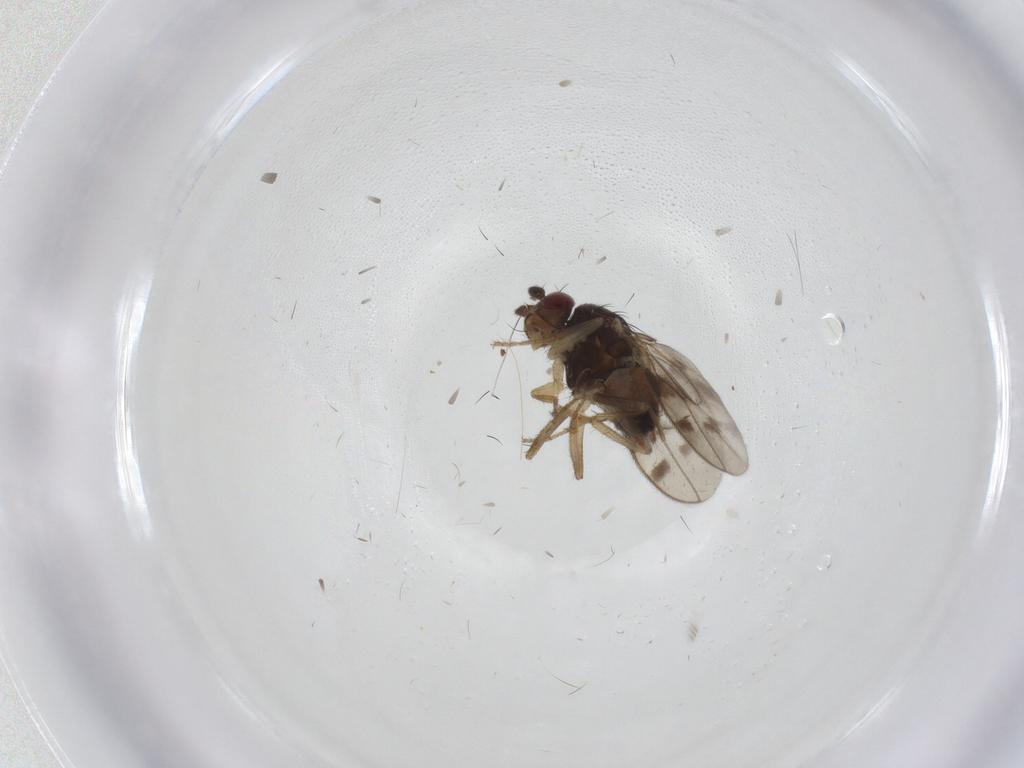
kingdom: Animalia
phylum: Arthropoda
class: Insecta
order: Diptera
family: Sphaeroceridae
